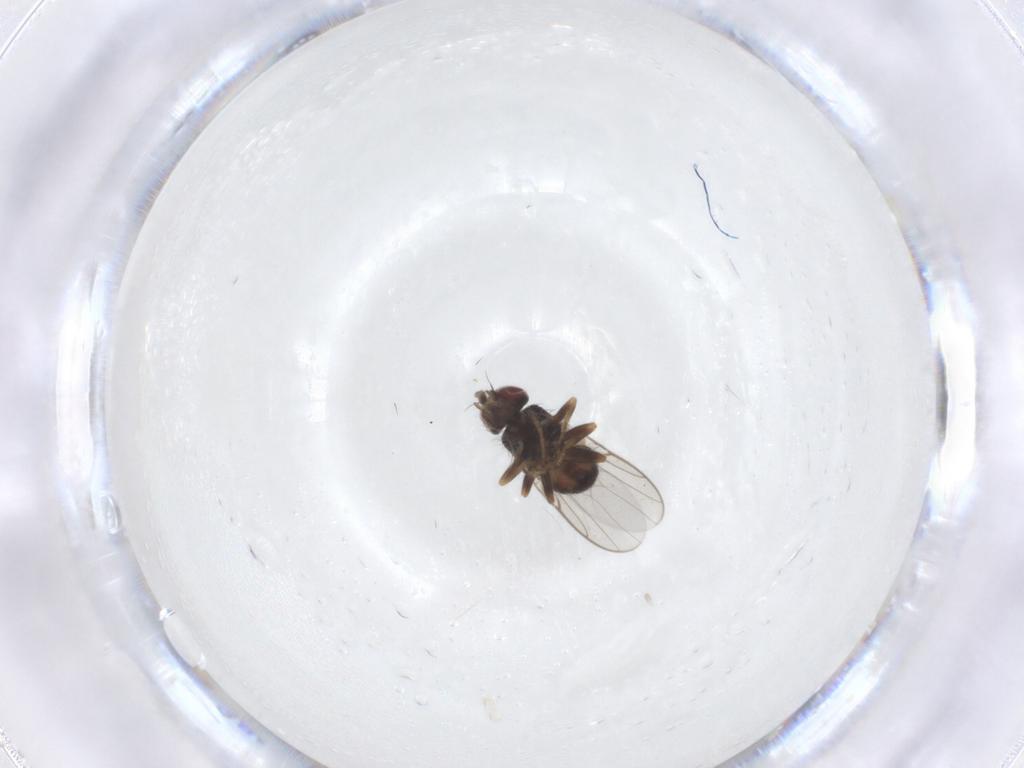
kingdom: Animalia
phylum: Arthropoda
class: Insecta
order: Diptera
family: Chloropidae
